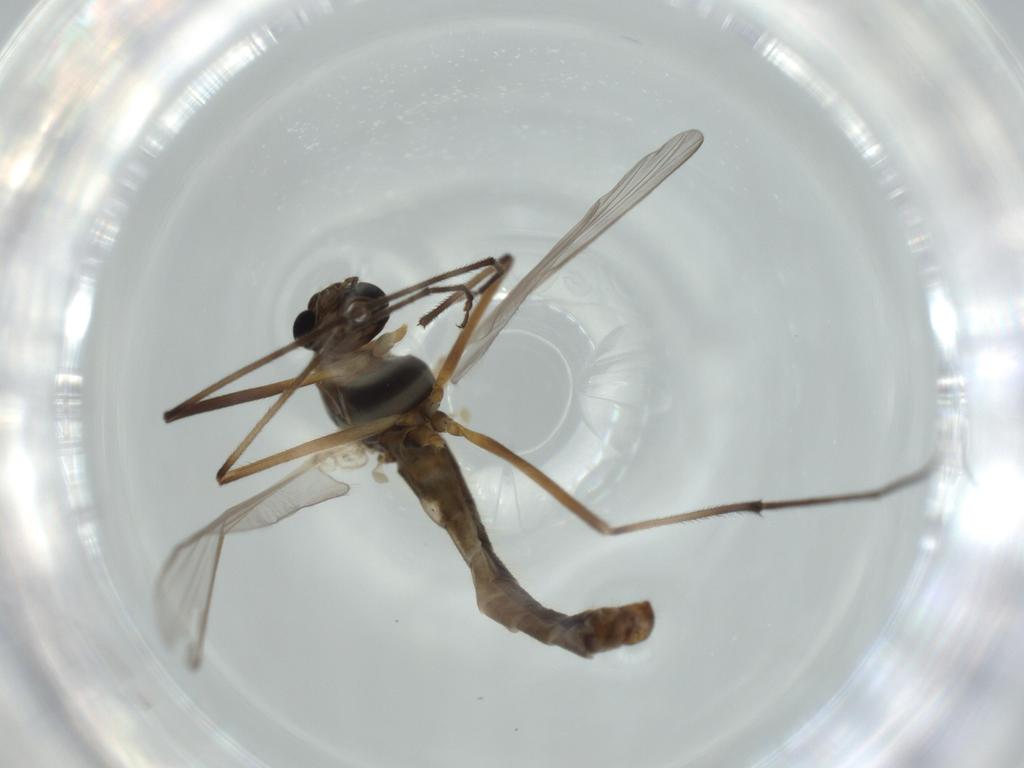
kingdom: Animalia
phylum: Arthropoda
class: Insecta
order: Diptera
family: Chironomidae
